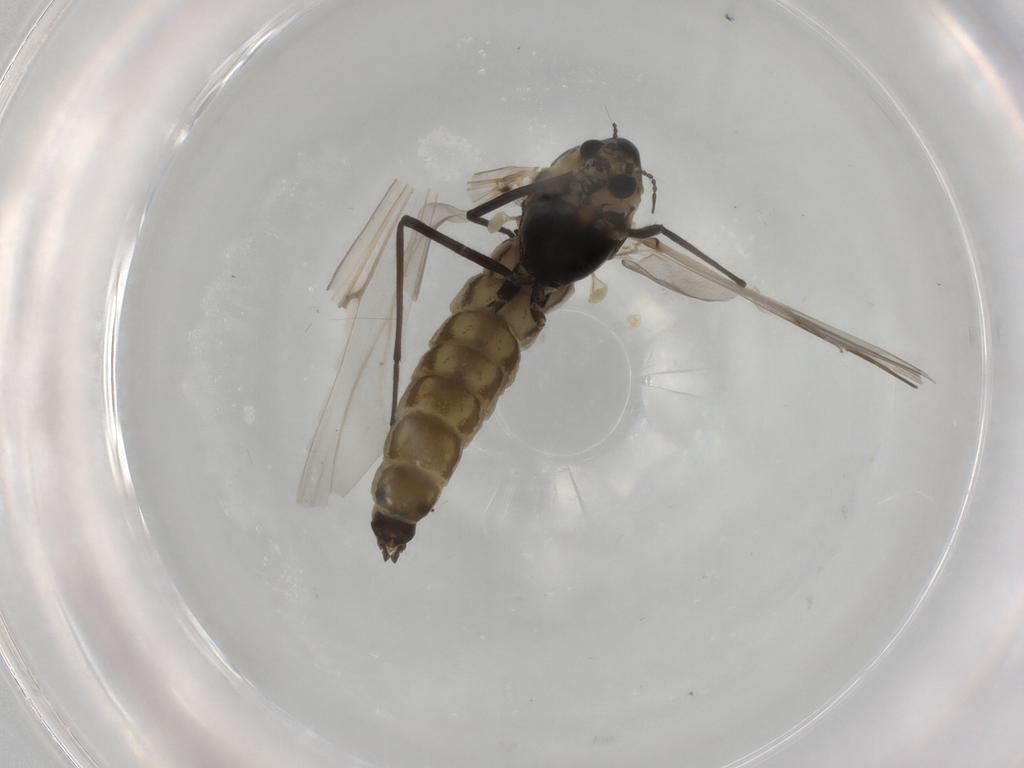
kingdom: Animalia
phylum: Arthropoda
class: Insecta
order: Diptera
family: Chironomidae
